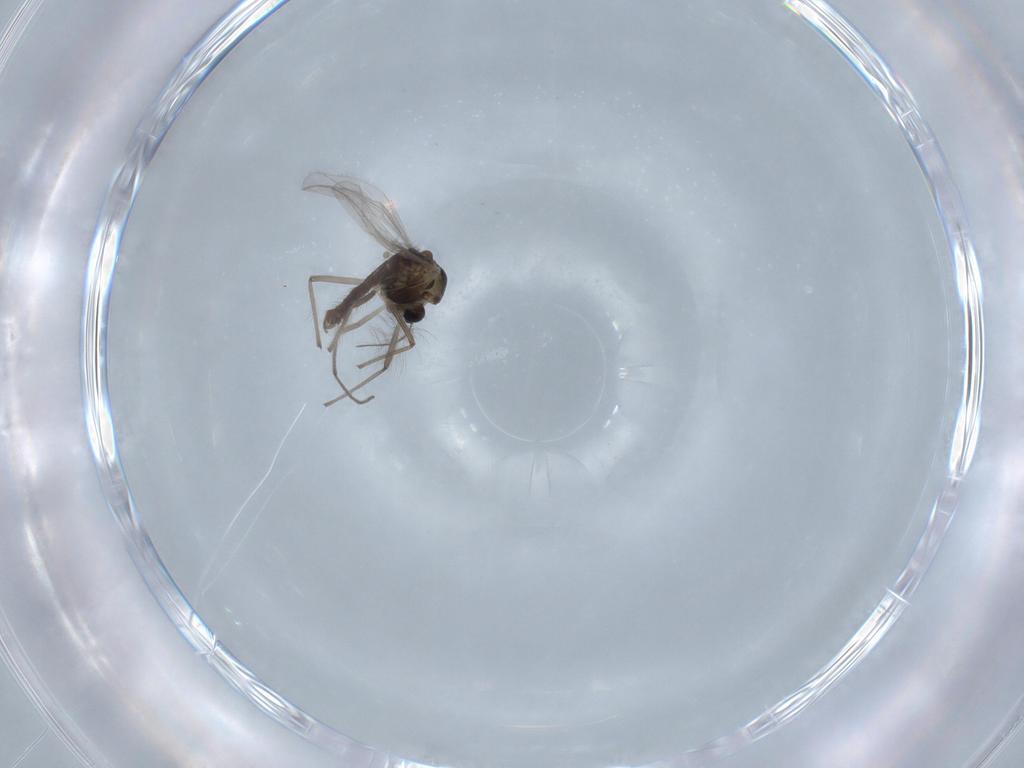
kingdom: Animalia
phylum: Arthropoda
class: Insecta
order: Diptera
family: Chironomidae
